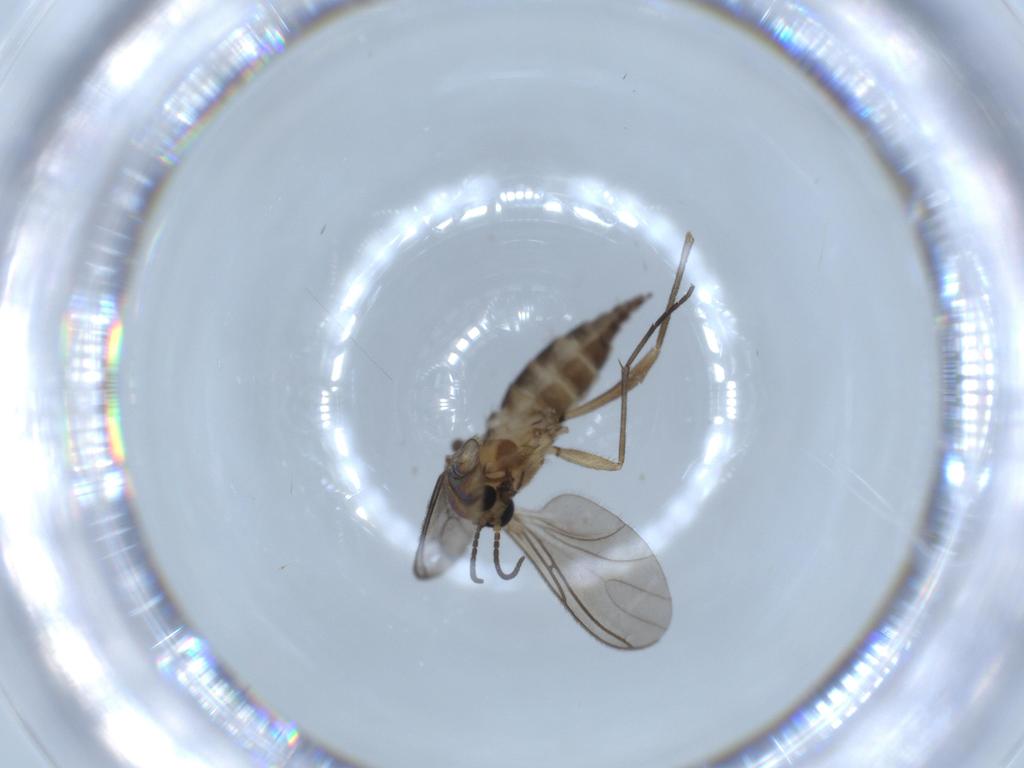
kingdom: Animalia
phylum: Arthropoda
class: Insecta
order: Diptera
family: Sciaridae
